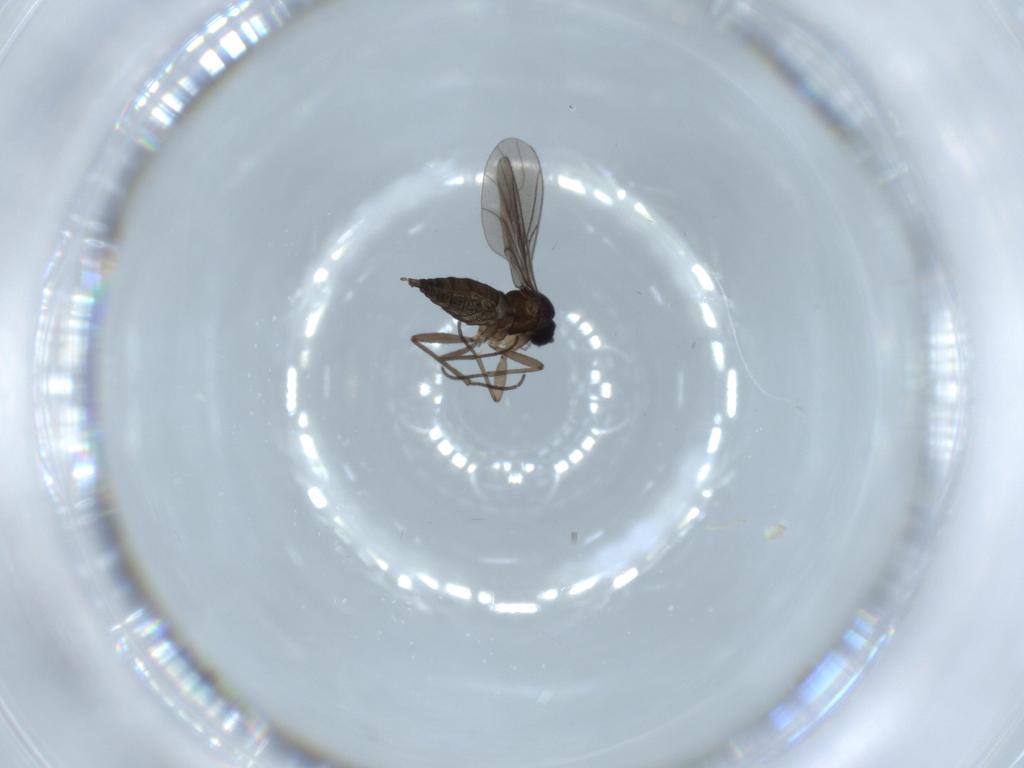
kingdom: Animalia
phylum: Arthropoda
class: Insecta
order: Diptera
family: Sciaridae
